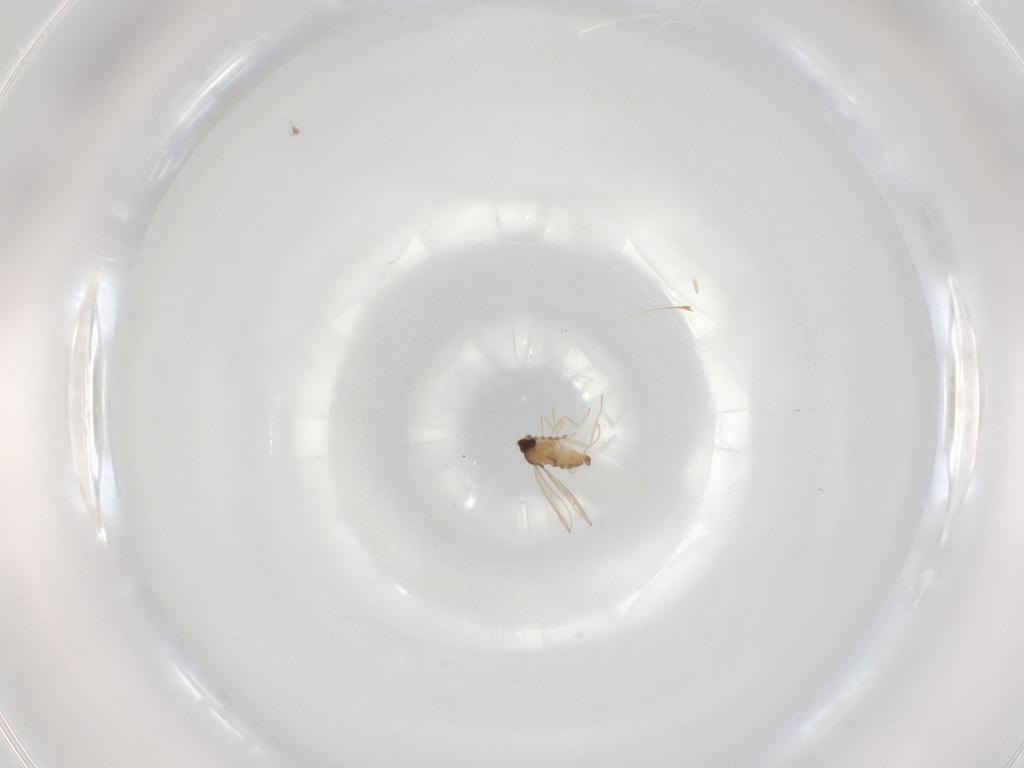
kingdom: Animalia
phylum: Arthropoda
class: Insecta
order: Diptera
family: Cecidomyiidae
